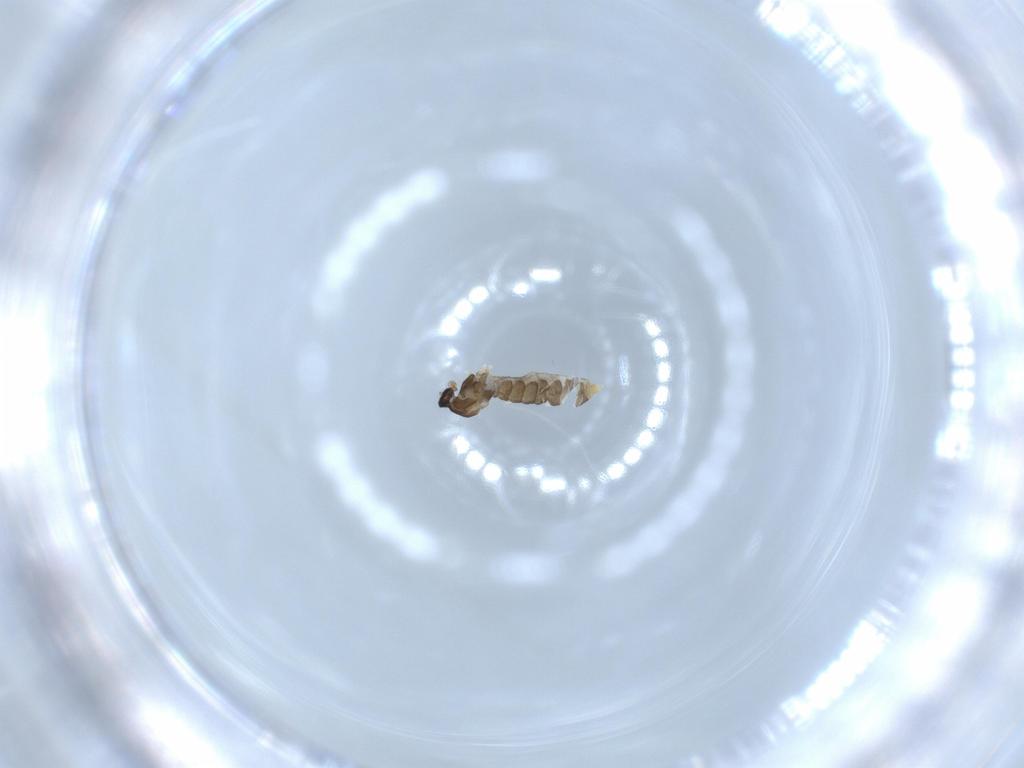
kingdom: Animalia
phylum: Arthropoda
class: Insecta
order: Diptera
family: Cecidomyiidae
